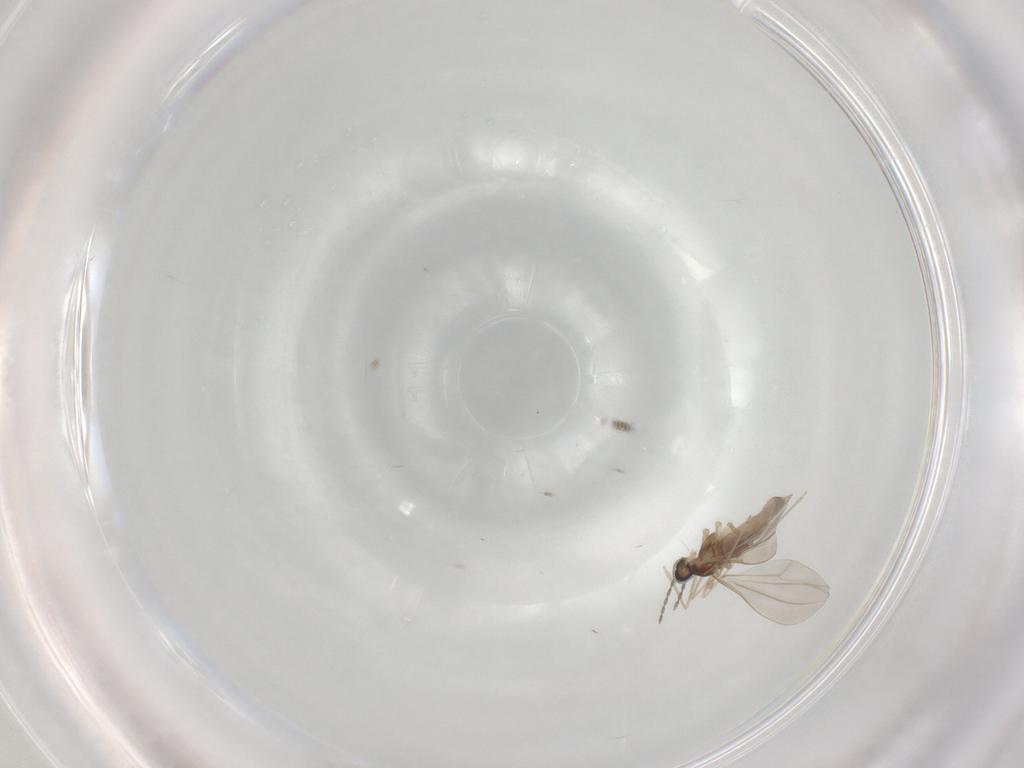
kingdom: Animalia
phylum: Arthropoda
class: Insecta
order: Diptera
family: Cecidomyiidae
